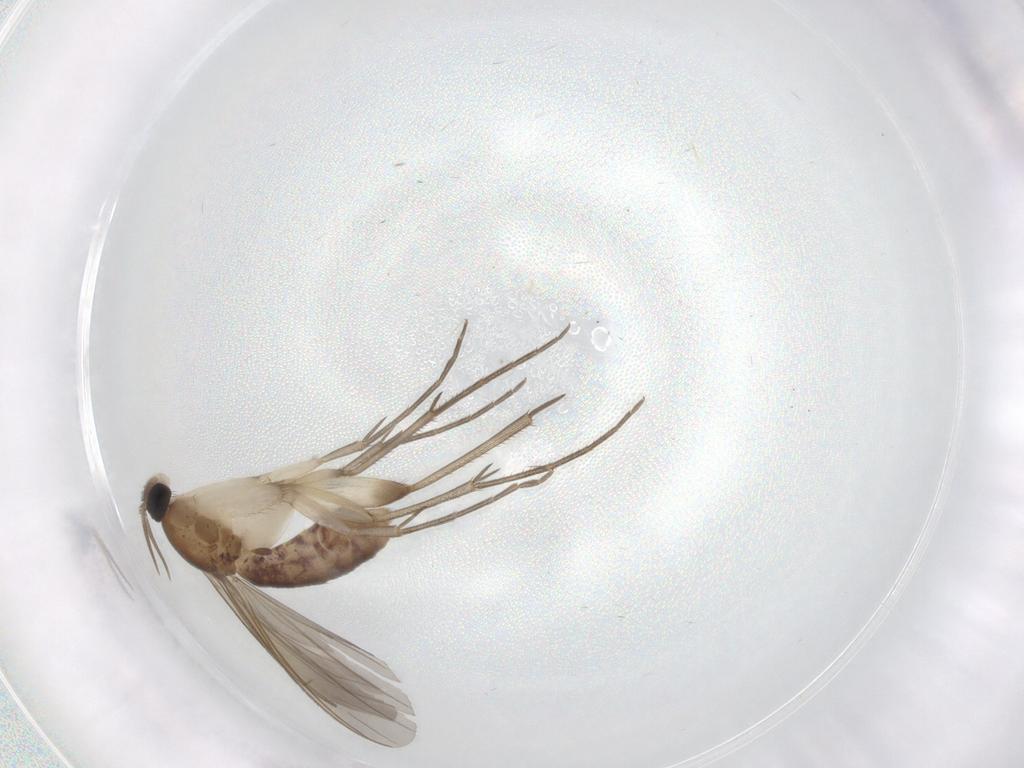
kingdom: Animalia
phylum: Arthropoda
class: Insecta
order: Diptera
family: Mycetophilidae
